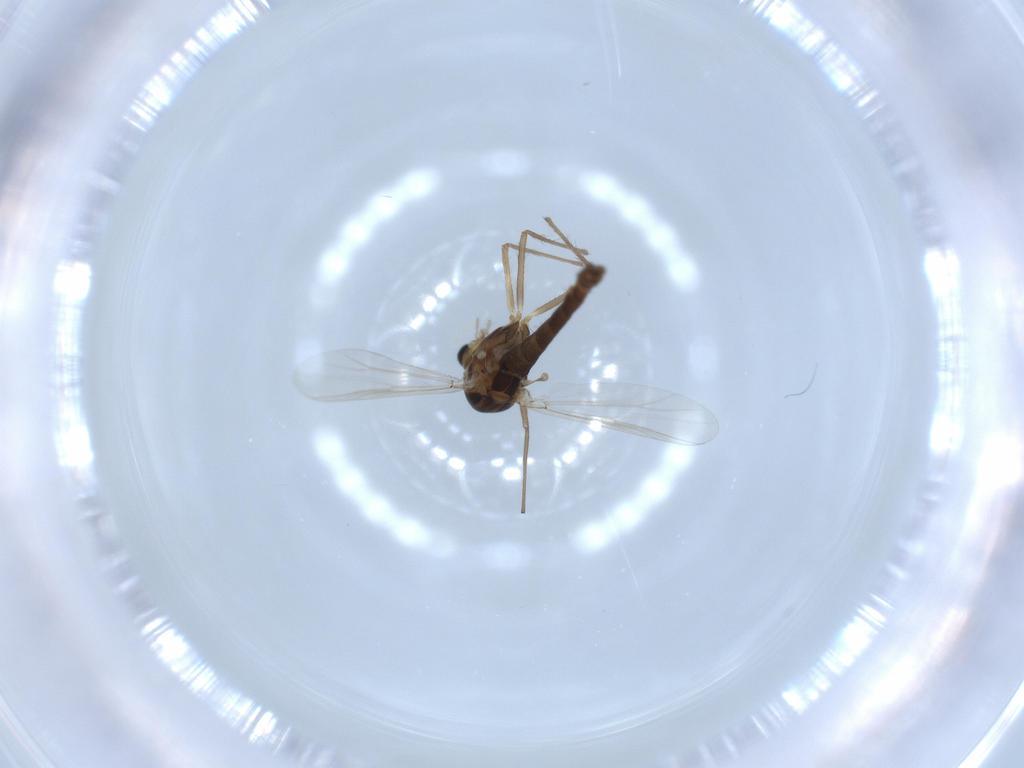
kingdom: Animalia
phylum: Arthropoda
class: Insecta
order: Diptera
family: Chironomidae
